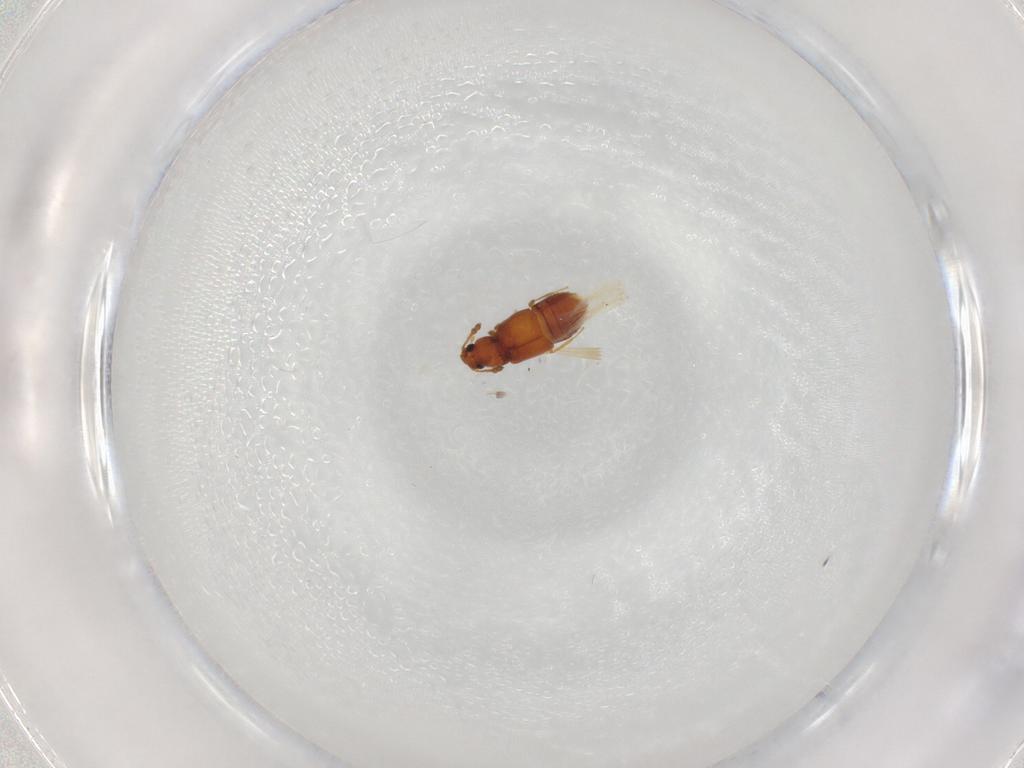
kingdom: Animalia
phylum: Arthropoda
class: Insecta
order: Coleoptera
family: Staphylinidae
